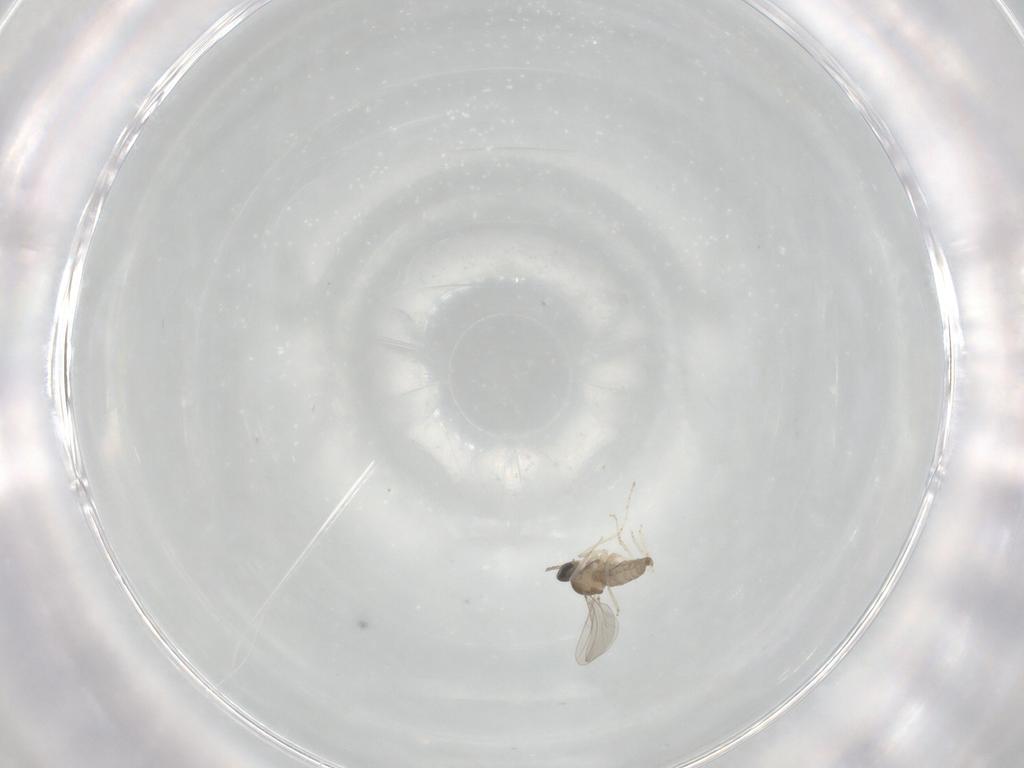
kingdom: Animalia
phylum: Arthropoda
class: Insecta
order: Diptera
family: Cecidomyiidae
